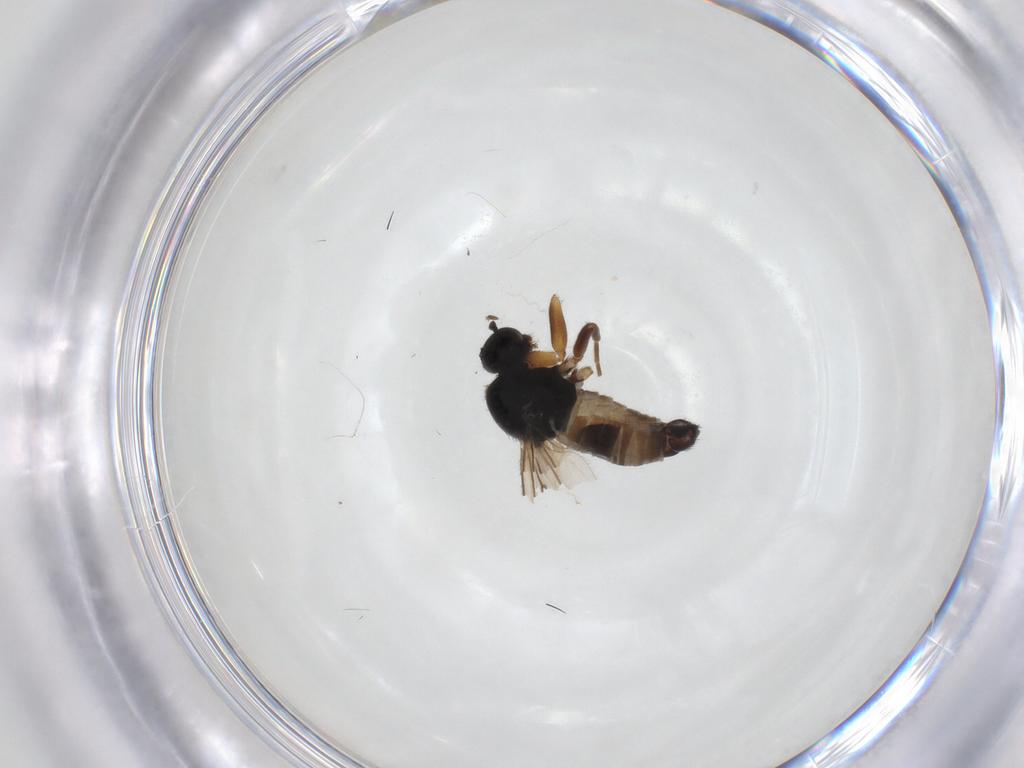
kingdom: Animalia
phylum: Arthropoda
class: Insecta
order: Diptera
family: Hybotidae
